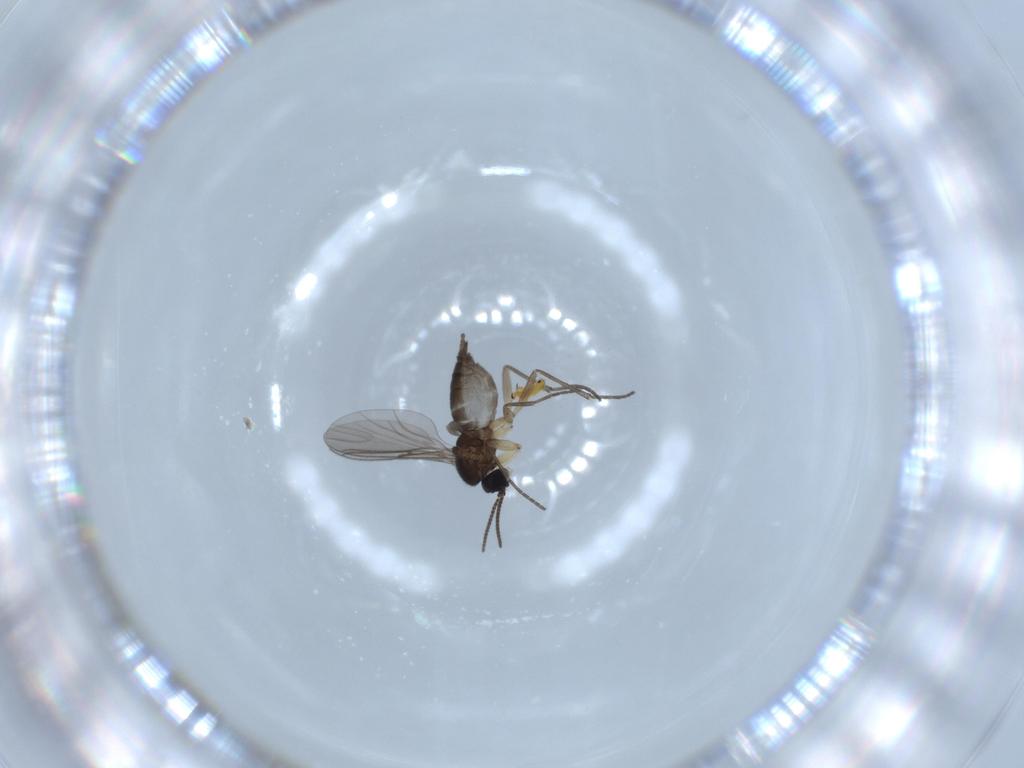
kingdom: Animalia
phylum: Arthropoda
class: Insecta
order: Diptera
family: Sciaridae
